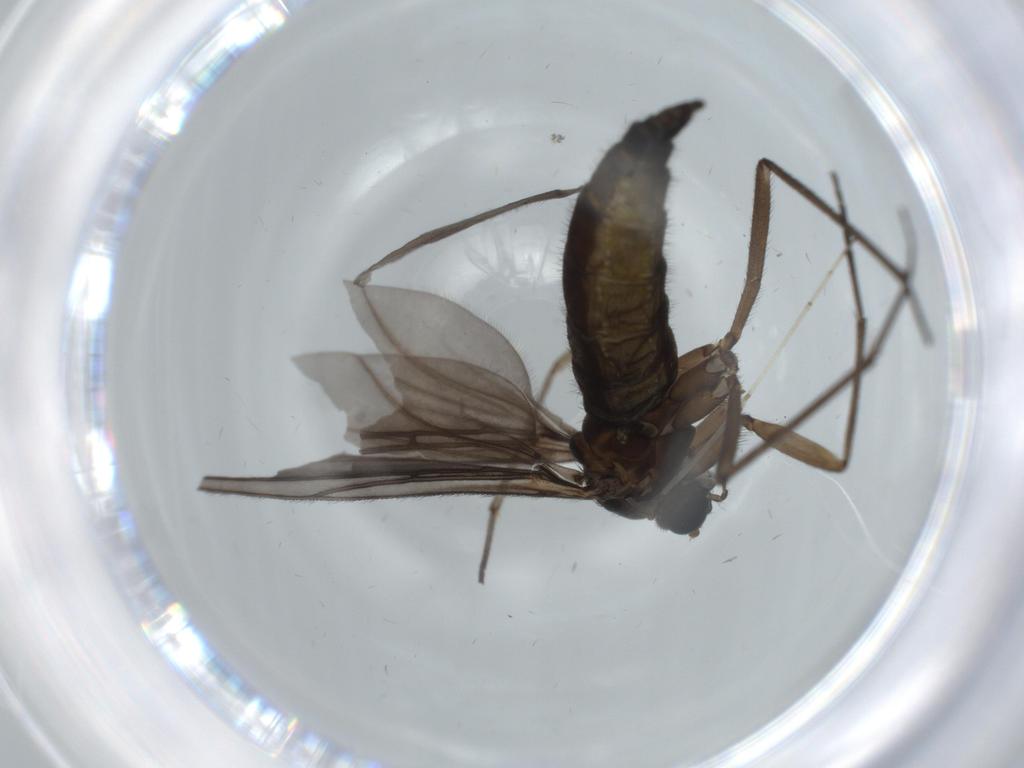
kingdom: Animalia
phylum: Arthropoda
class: Insecta
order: Diptera
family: Sciaridae
